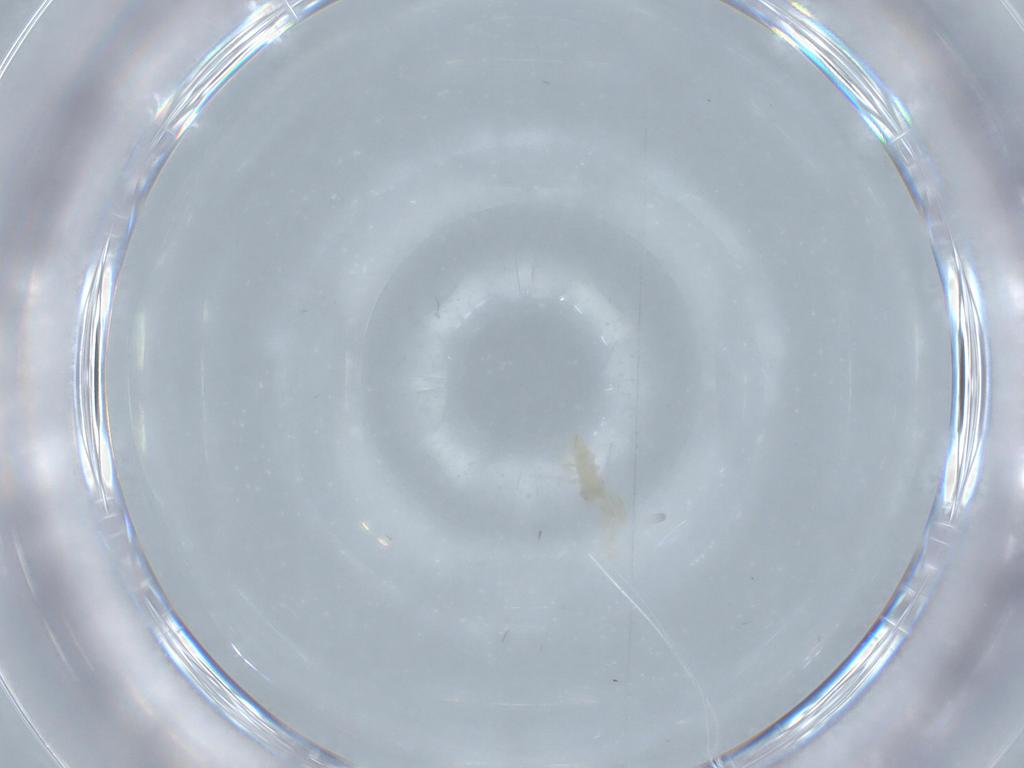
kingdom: Animalia
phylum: Arthropoda
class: Insecta
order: Hemiptera
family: Aleyrodidae
